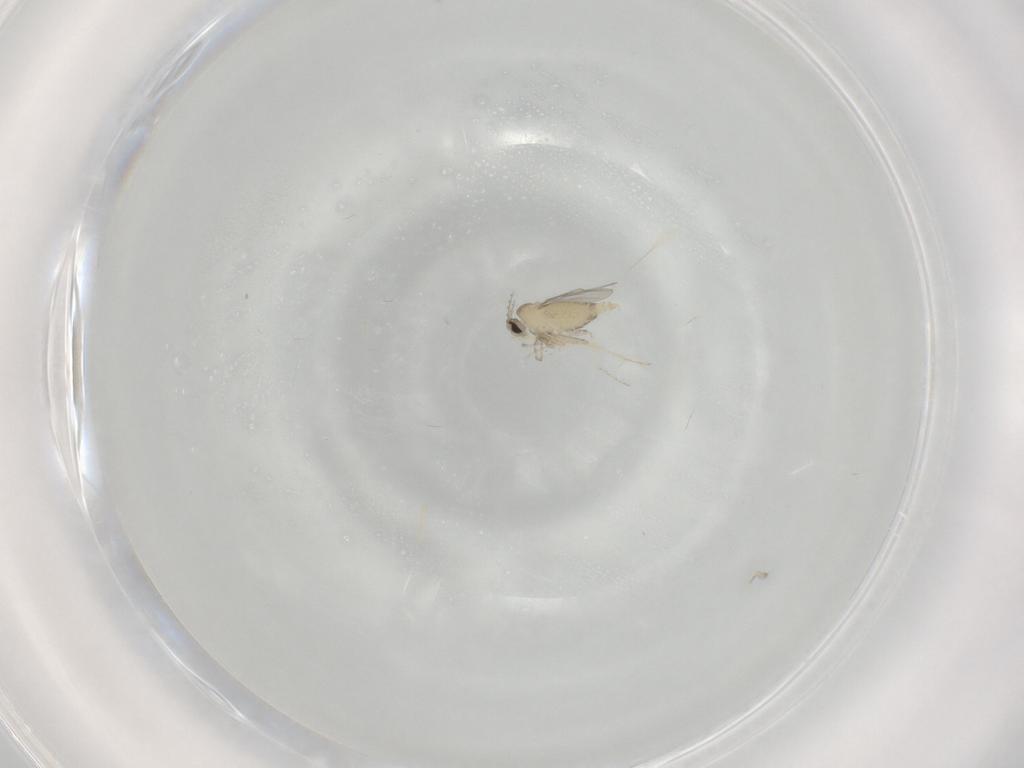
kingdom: Animalia
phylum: Arthropoda
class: Insecta
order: Diptera
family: Cecidomyiidae
